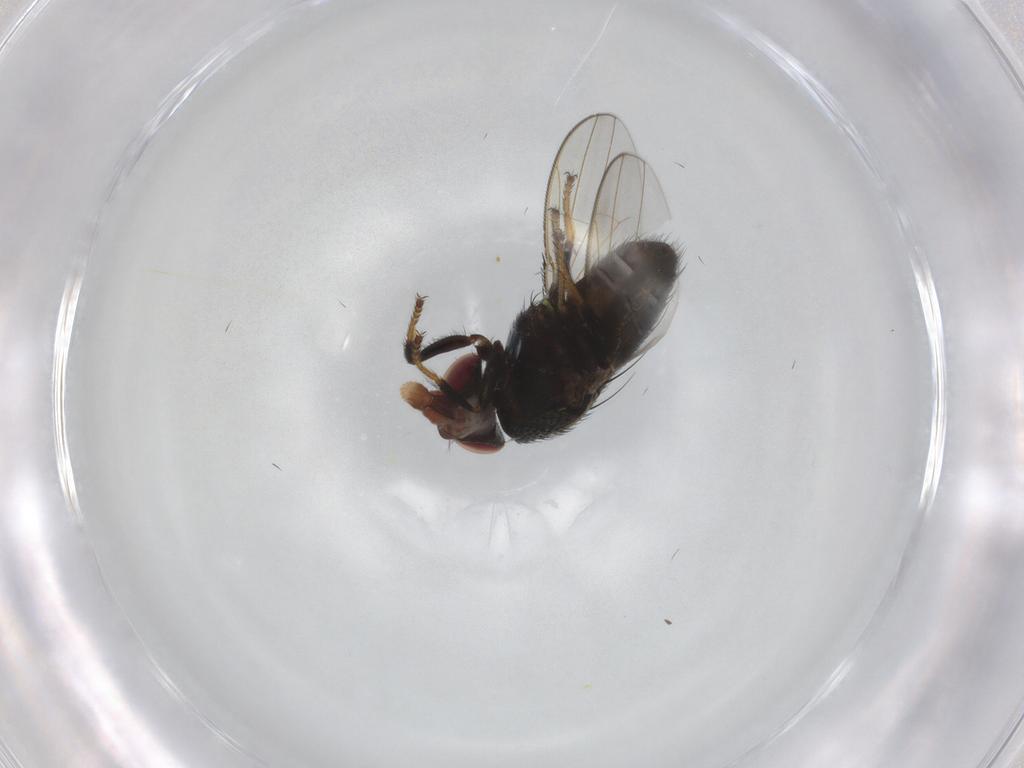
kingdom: Animalia
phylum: Arthropoda
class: Insecta
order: Diptera
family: Ephydridae
